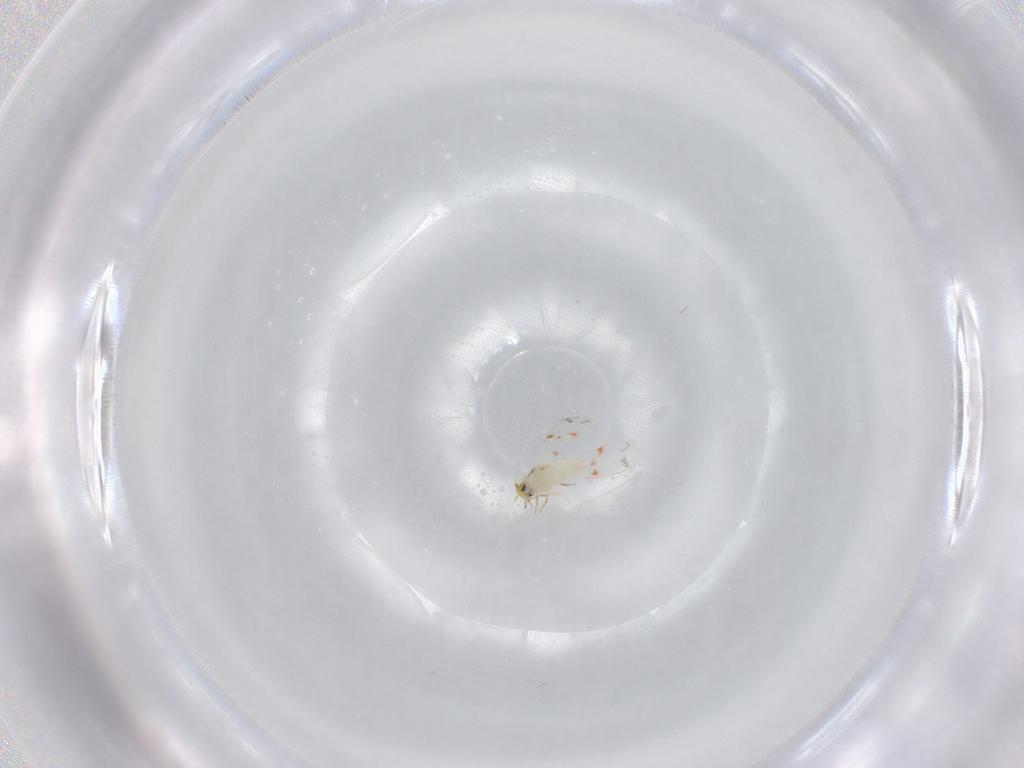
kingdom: Animalia
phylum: Arthropoda
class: Insecta
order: Hemiptera
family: Aleyrodidae
